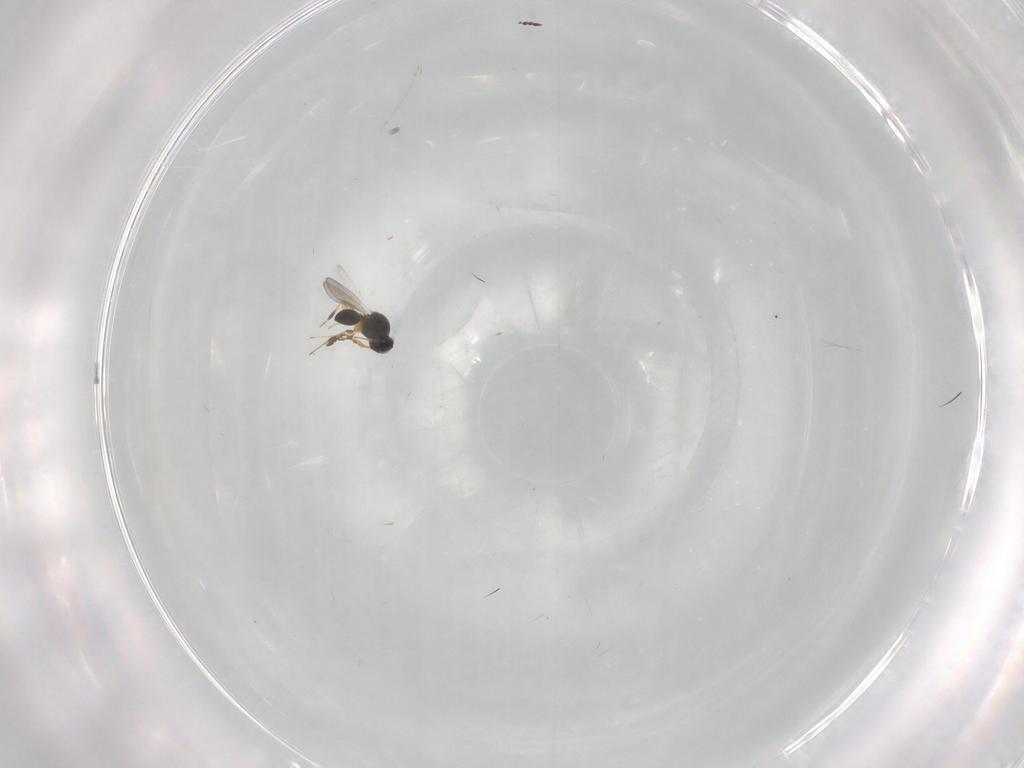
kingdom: Animalia
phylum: Arthropoda
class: Insecta
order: Hymenoptera
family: Platygastridae
